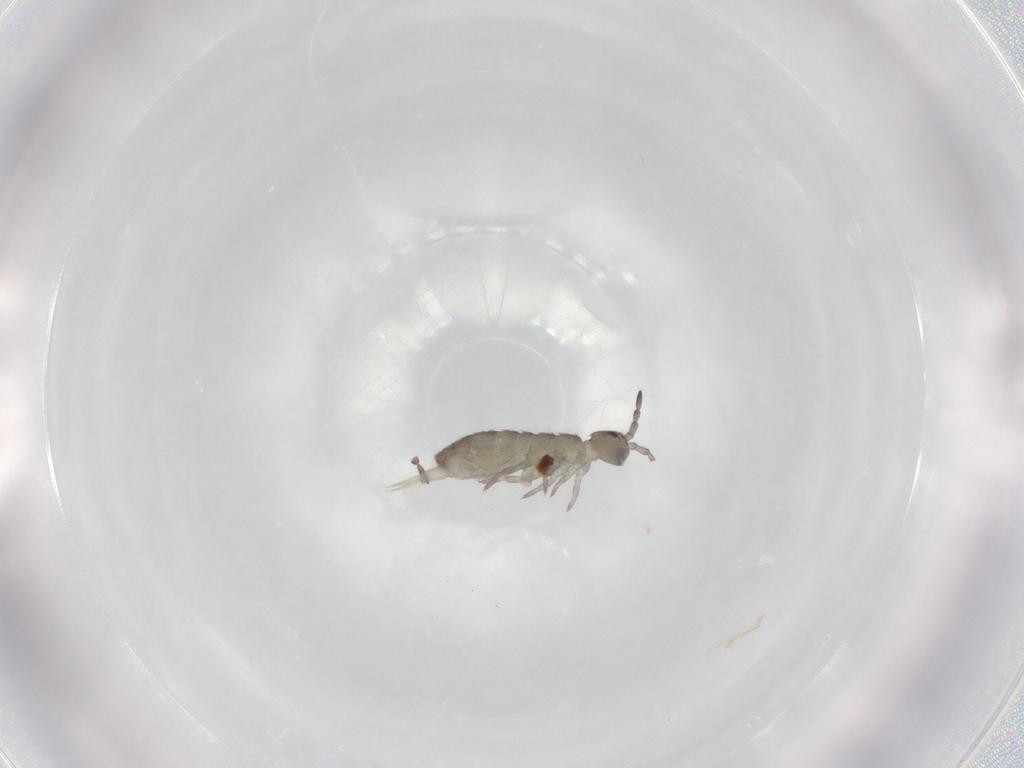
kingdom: Animalia
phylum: Arthropoda
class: Collembola
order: Entomobryomorpha
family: Isotomidae
